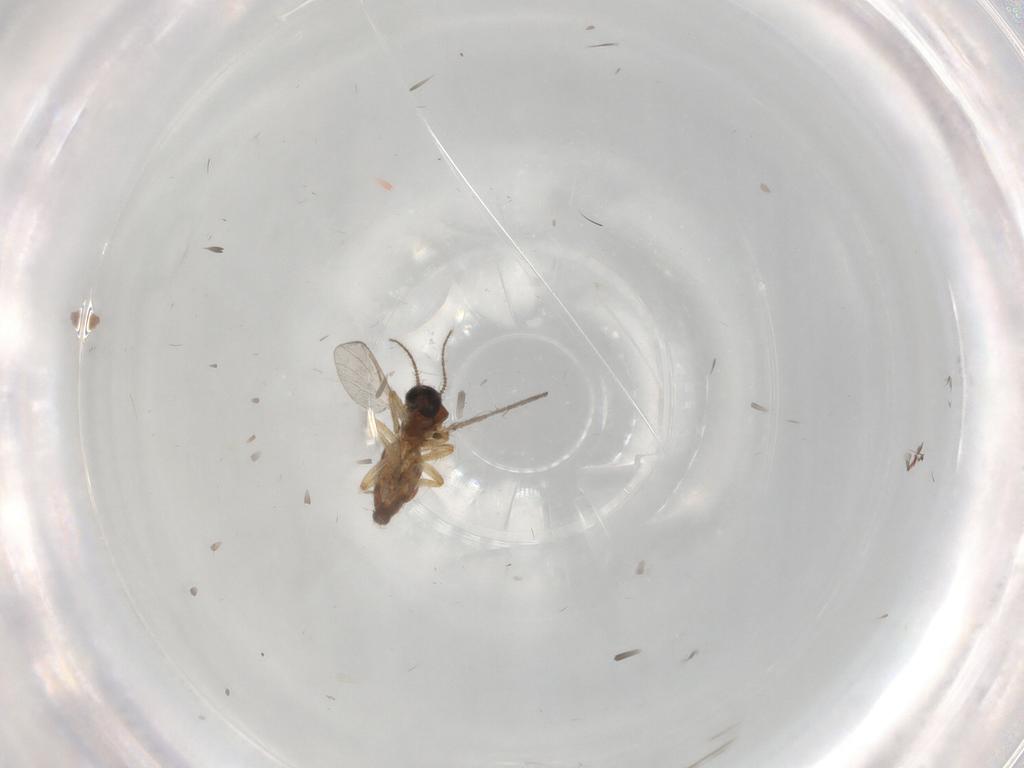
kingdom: Animalia
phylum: Arthropoda
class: Insecta
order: Diptera
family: Ceratopogonidae
